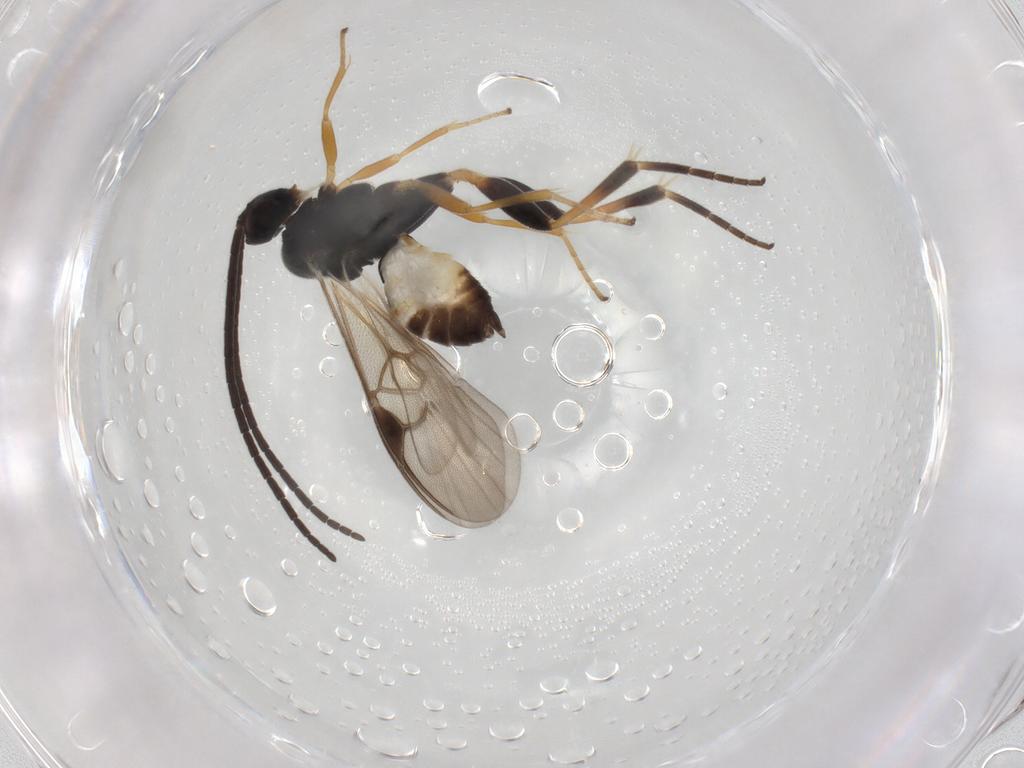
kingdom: Animalia
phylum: Arthropoda
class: Insecta
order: Hymenoptera
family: Braconidae
